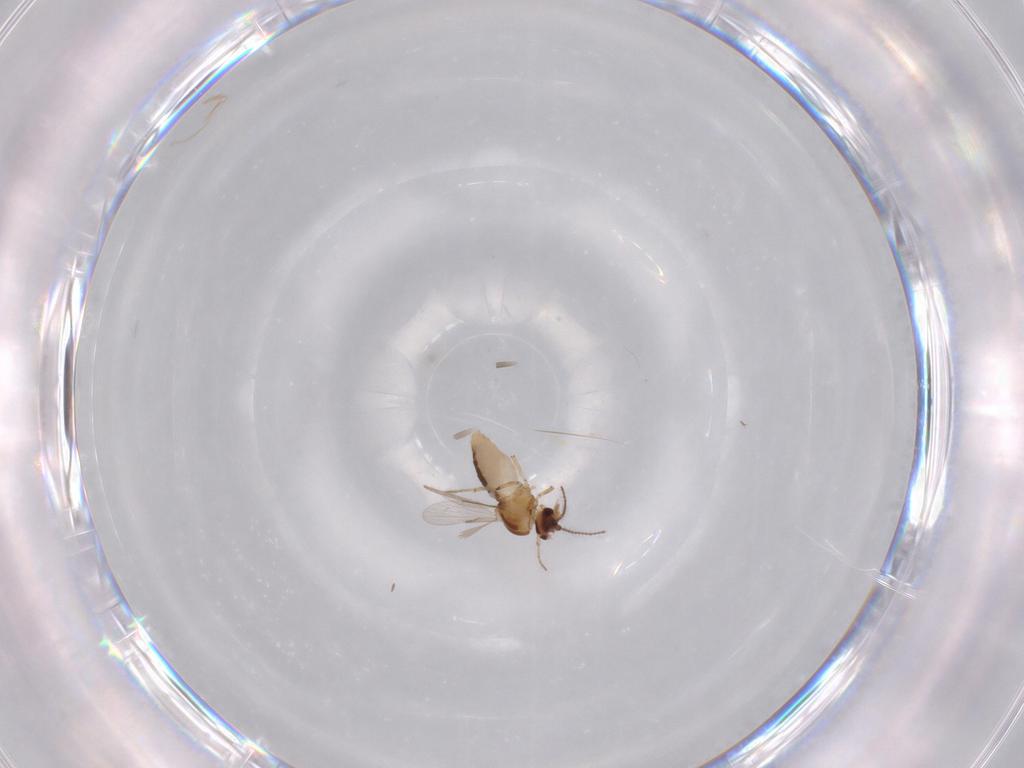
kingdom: Animalia
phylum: Arthropoda
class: Insecta
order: Diptera
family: Ceratopogonidae
